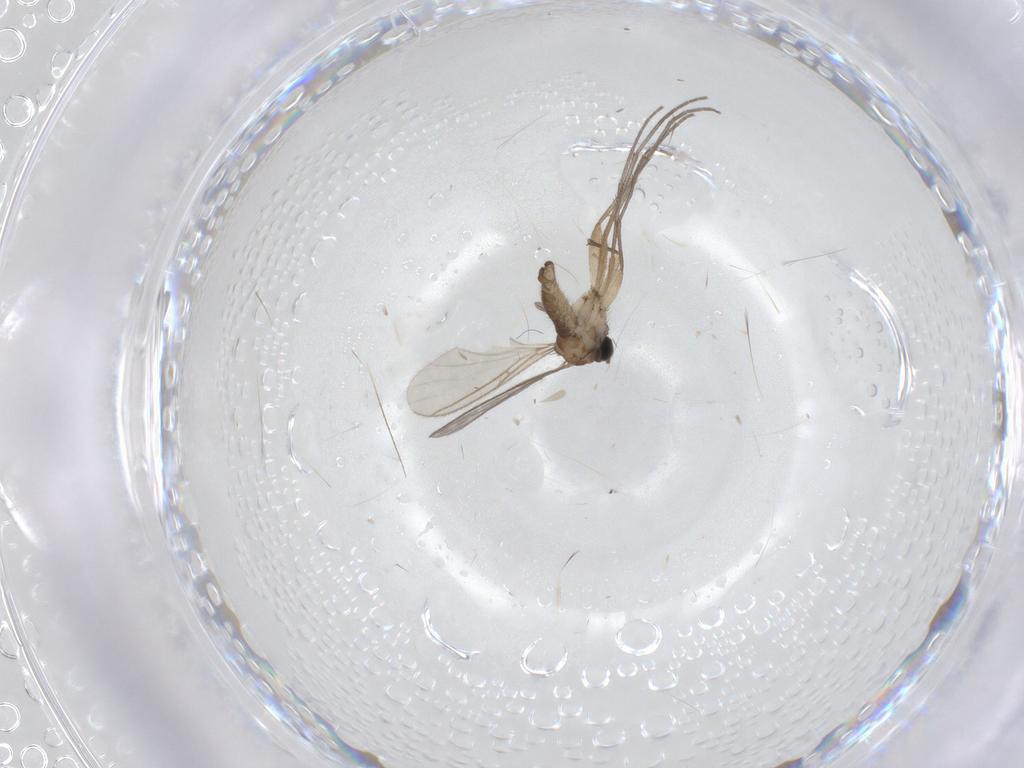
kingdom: Animalia
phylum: Arthropoda
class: Insecta
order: Diptera
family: Sciaridae
